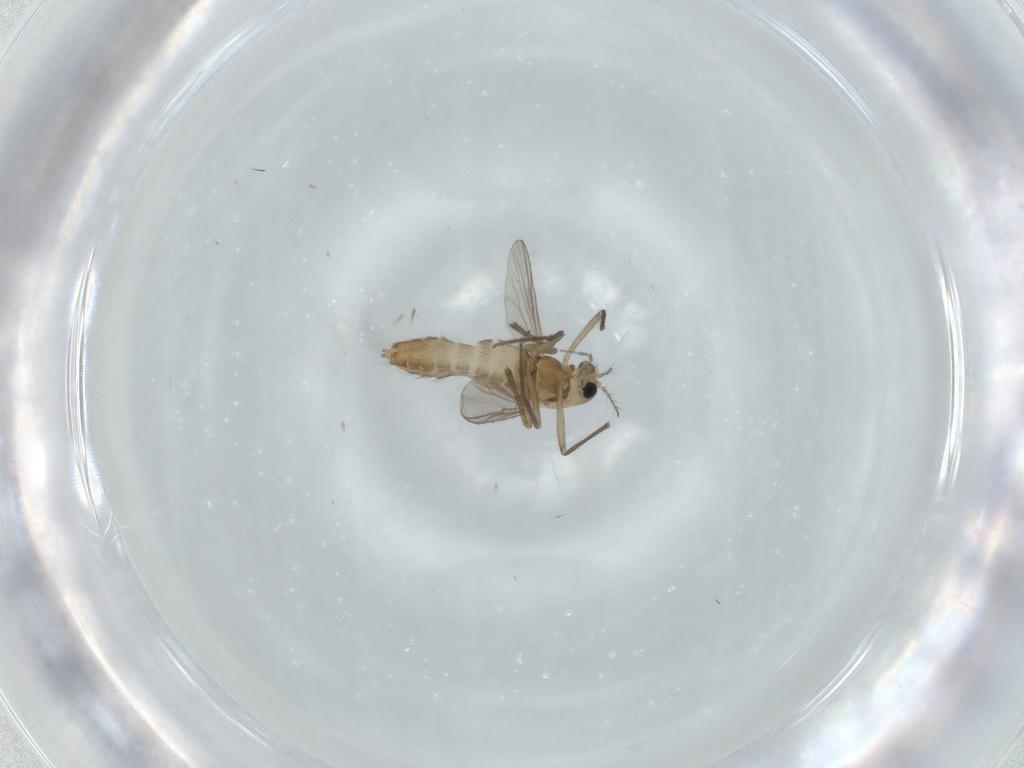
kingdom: Animalia
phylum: Arthropoda
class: Insecta
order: Diptera
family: Chironomidae
